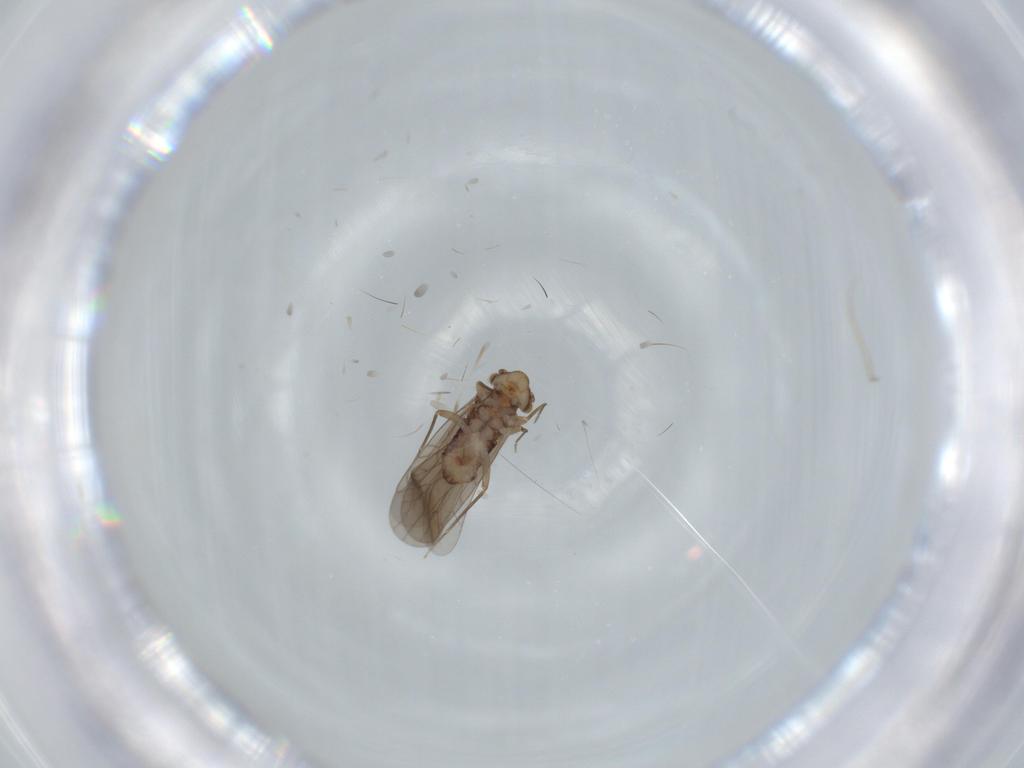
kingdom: Animalia
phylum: Arthropoda
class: Insecta
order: Psocodea
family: Lepidopsocidae
